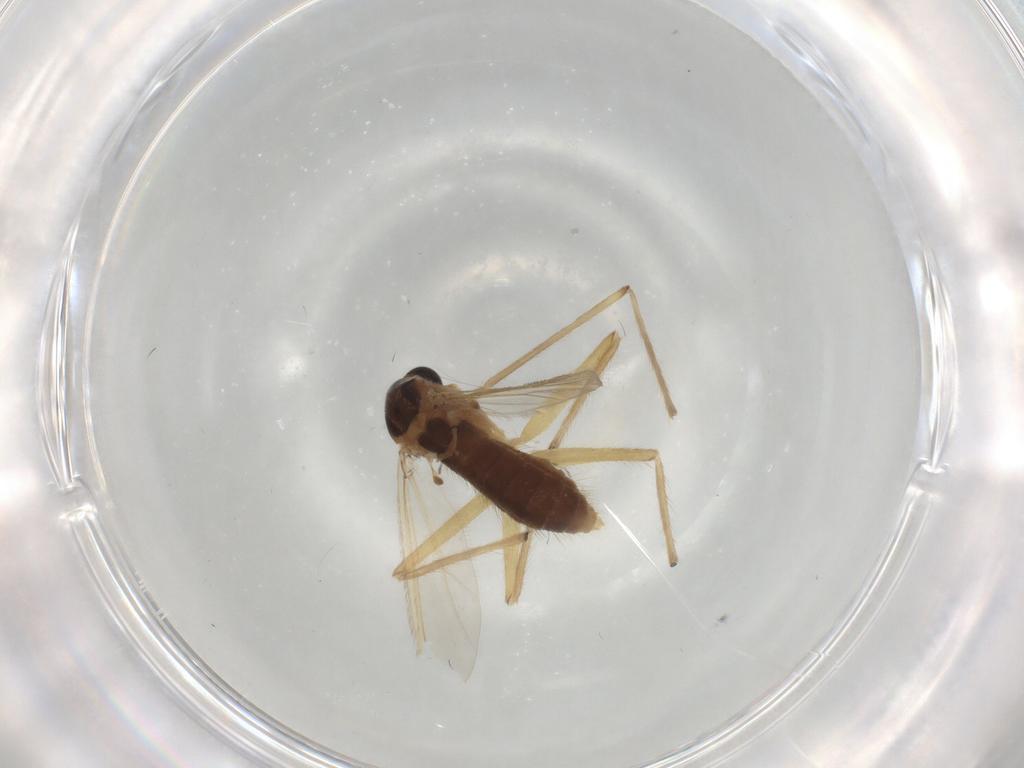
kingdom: Animalia
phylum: Arthropoda
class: Insecta
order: Diptera
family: Chironomidae
